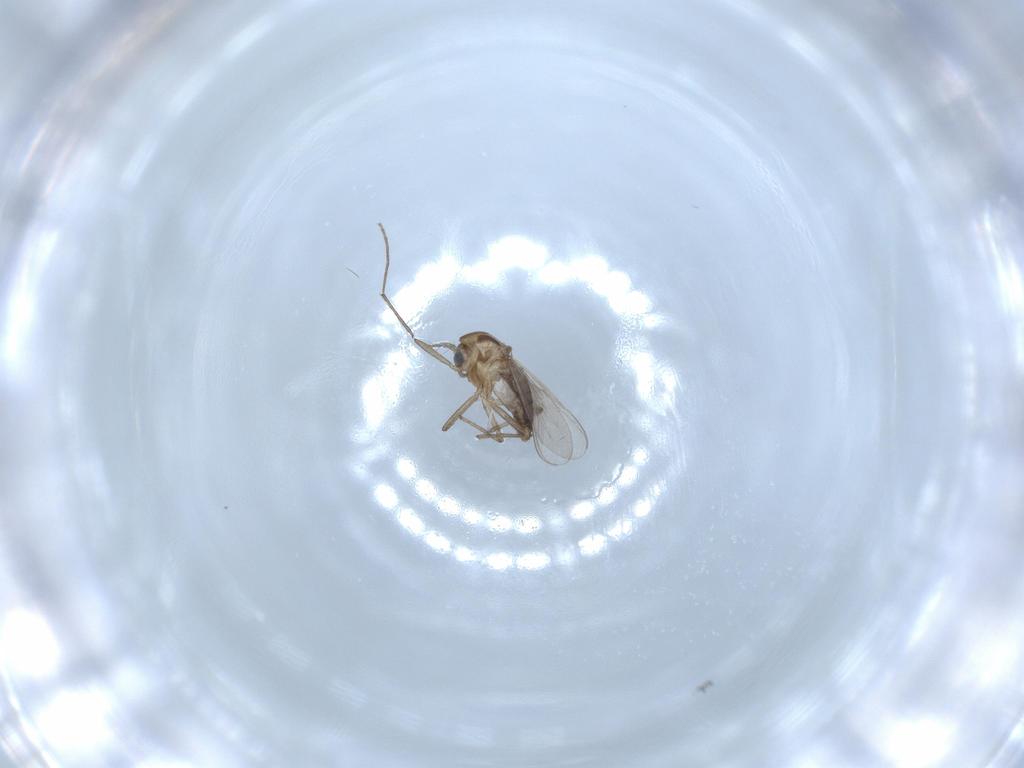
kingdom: Animalia
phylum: Arthropoda
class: Insecta
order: Diptera
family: Chironomidae
